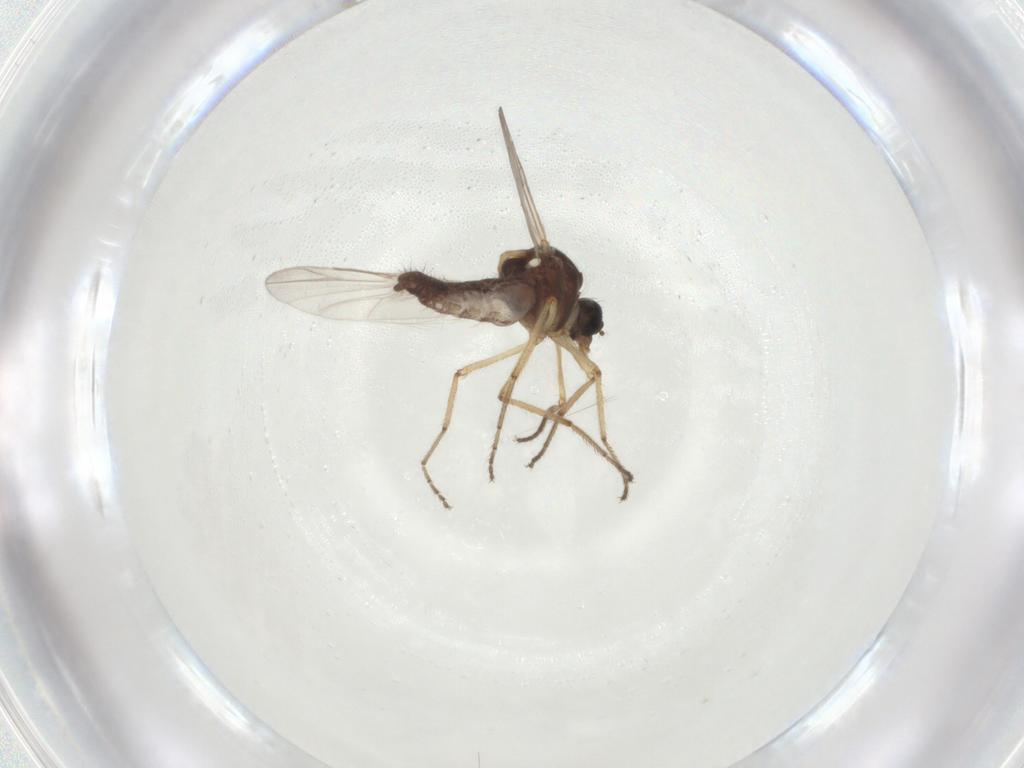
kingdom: Animalia
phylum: Arthropoda
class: Insecta
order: Diptera
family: Ceratopogonidae
